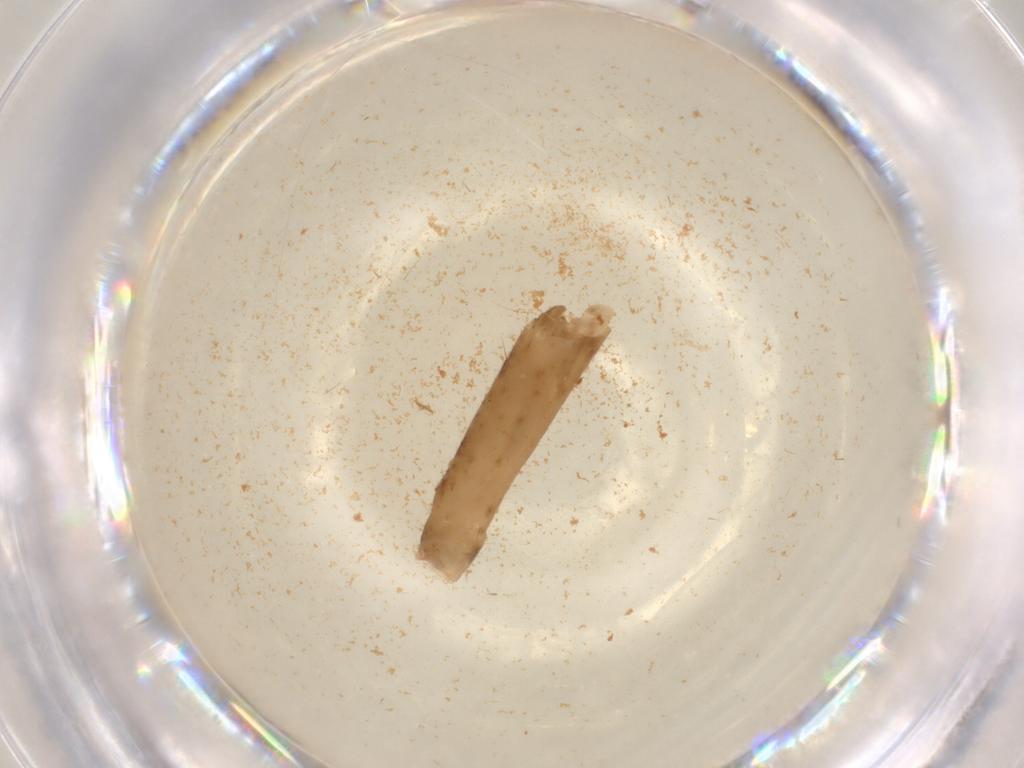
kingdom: Animalia
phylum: Arthropoda
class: Insecta
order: Orthoptera
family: Acrididae
